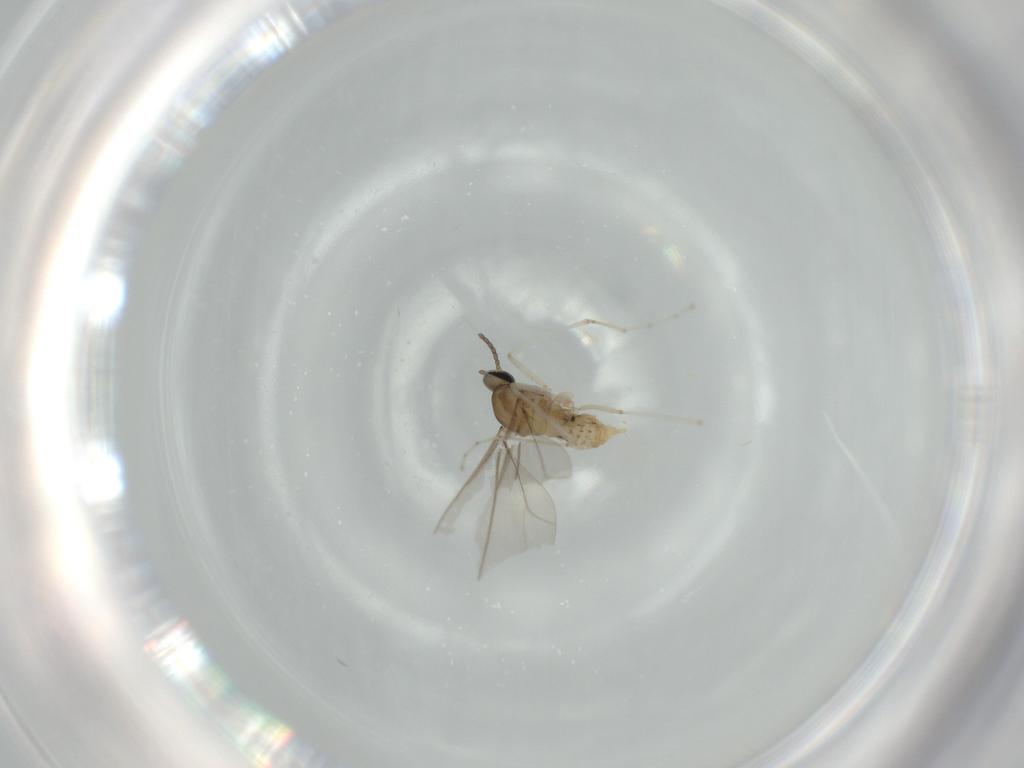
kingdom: Animalia
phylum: Arthropoda
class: Insecta
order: Diptera
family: Cecidomyiidae
